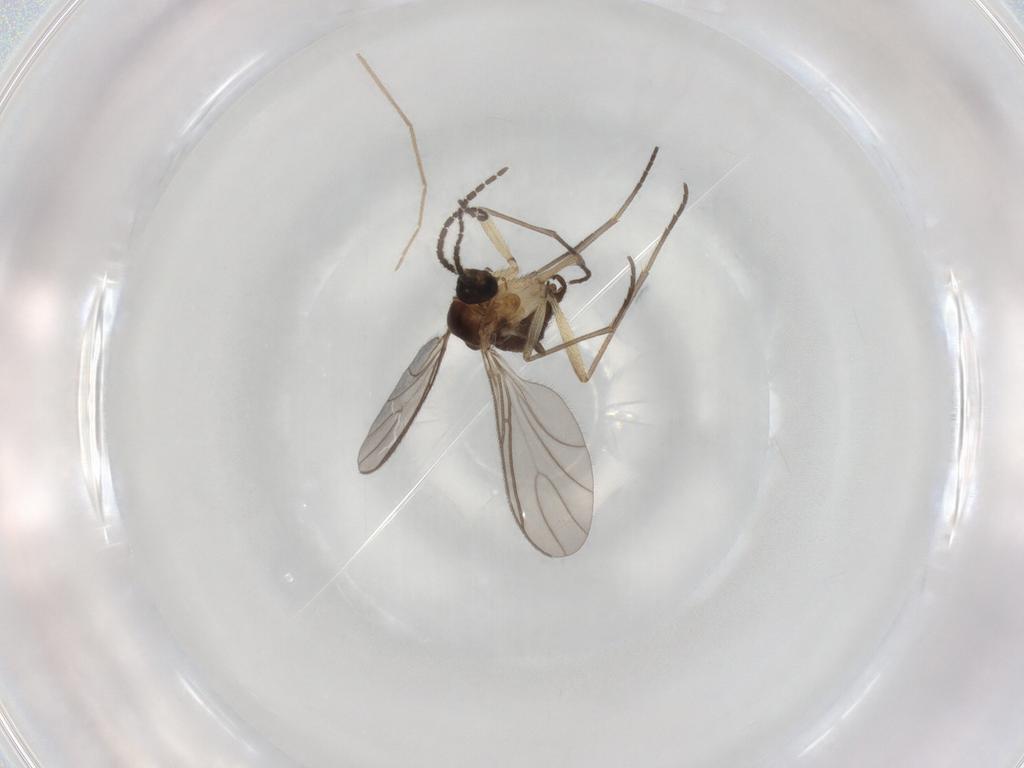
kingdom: Animalia
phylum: Arthropoda
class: Insecta
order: Diptera
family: Sciaridae
